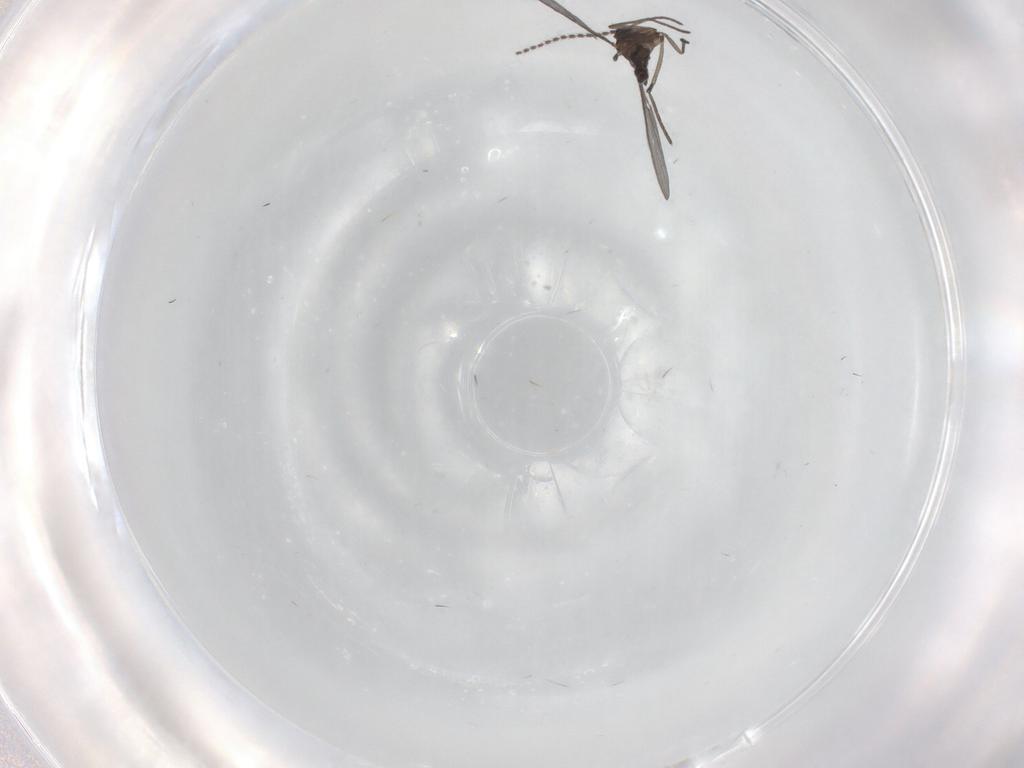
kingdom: Animalia
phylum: Arthropoda
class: Insecta
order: Diptera
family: Sciaridae
